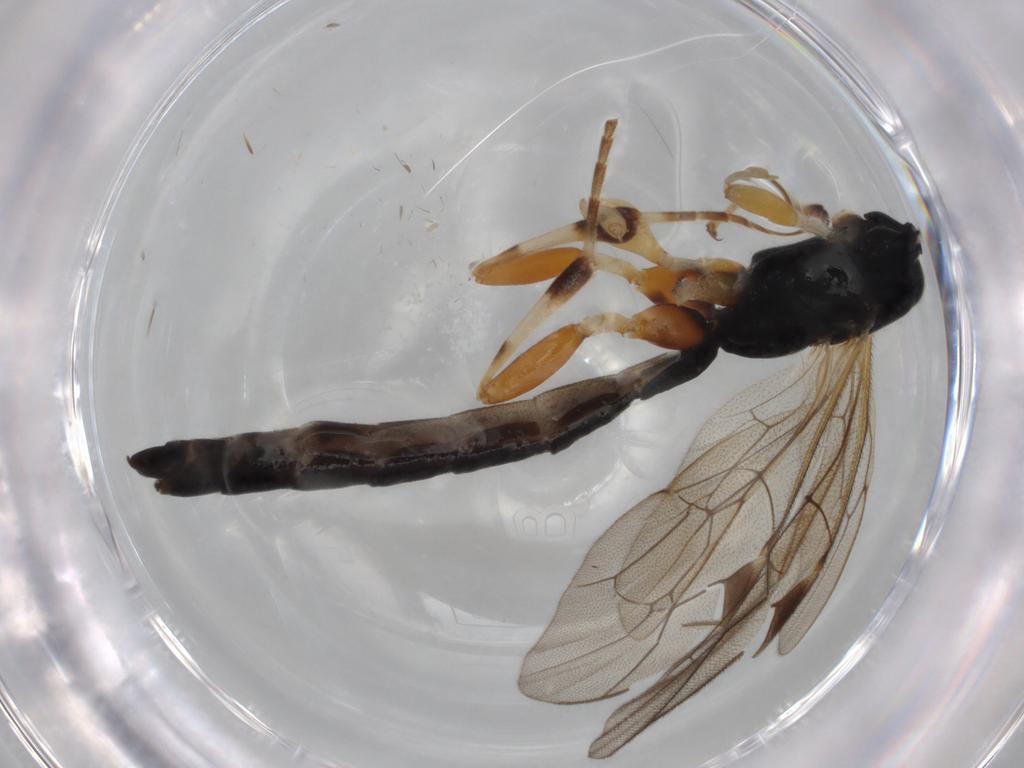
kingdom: Animalia
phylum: Arthropoda
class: Insecta
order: Hymenoptera
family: Ichneumonidae
